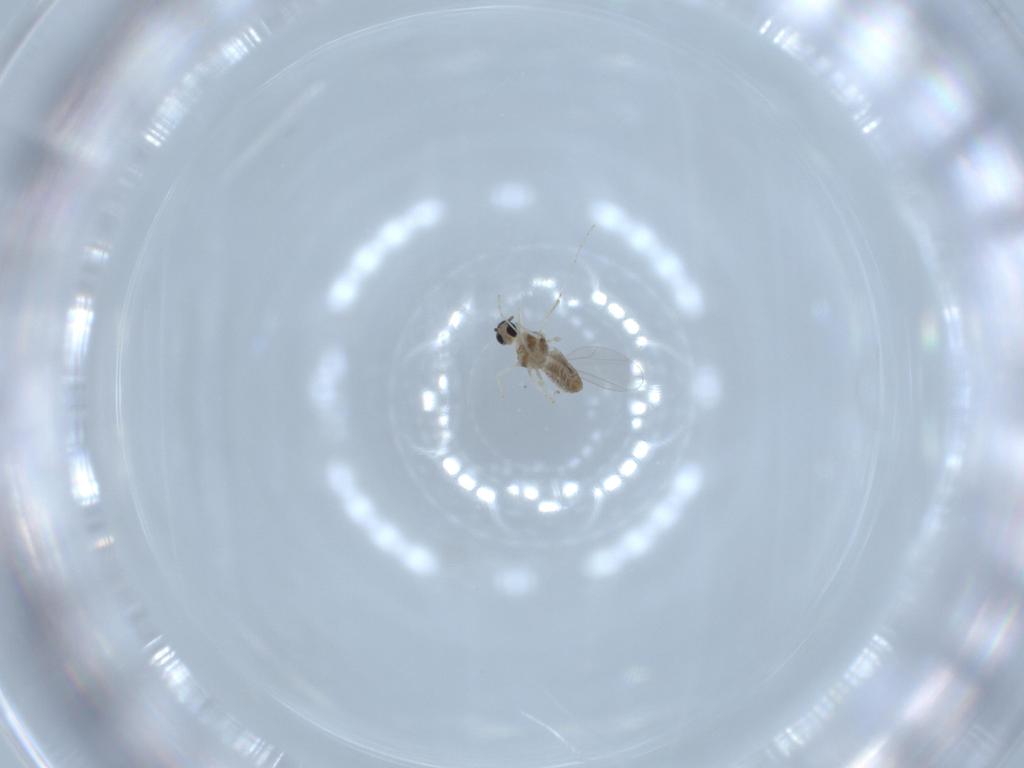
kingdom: Animalia
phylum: Arthropoda
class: Insecta
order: Diptera
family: Cecidomyiidae
